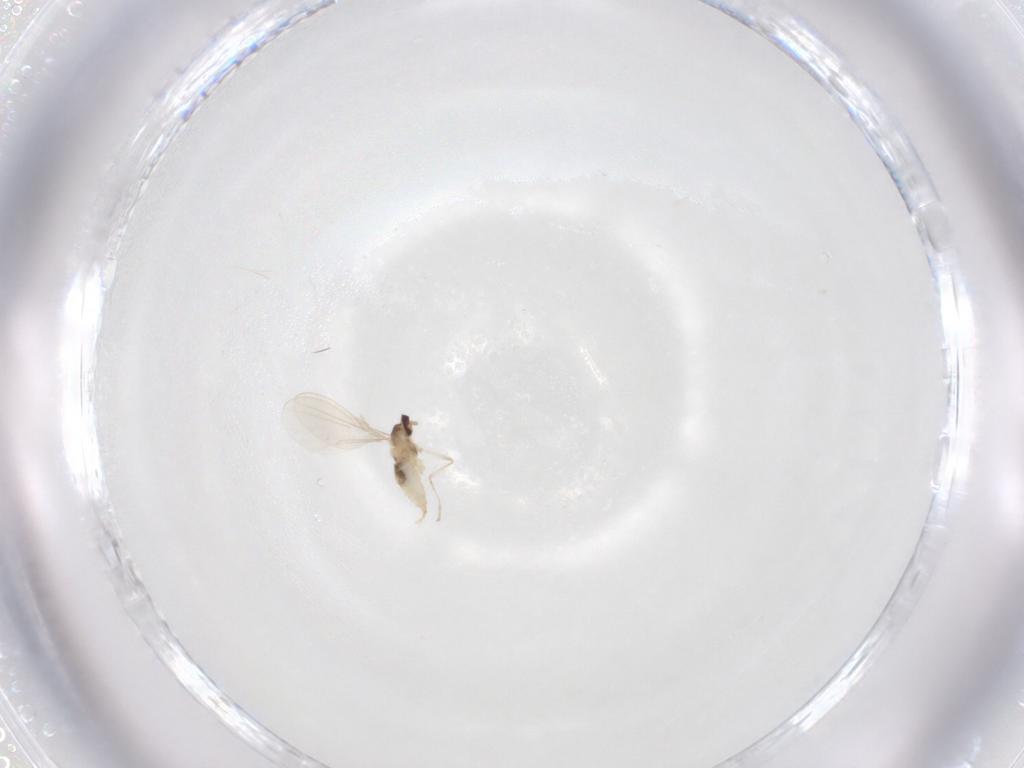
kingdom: Animalia
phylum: Arthropoda
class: Insecta
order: Diptera
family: Cecidomyiidae
